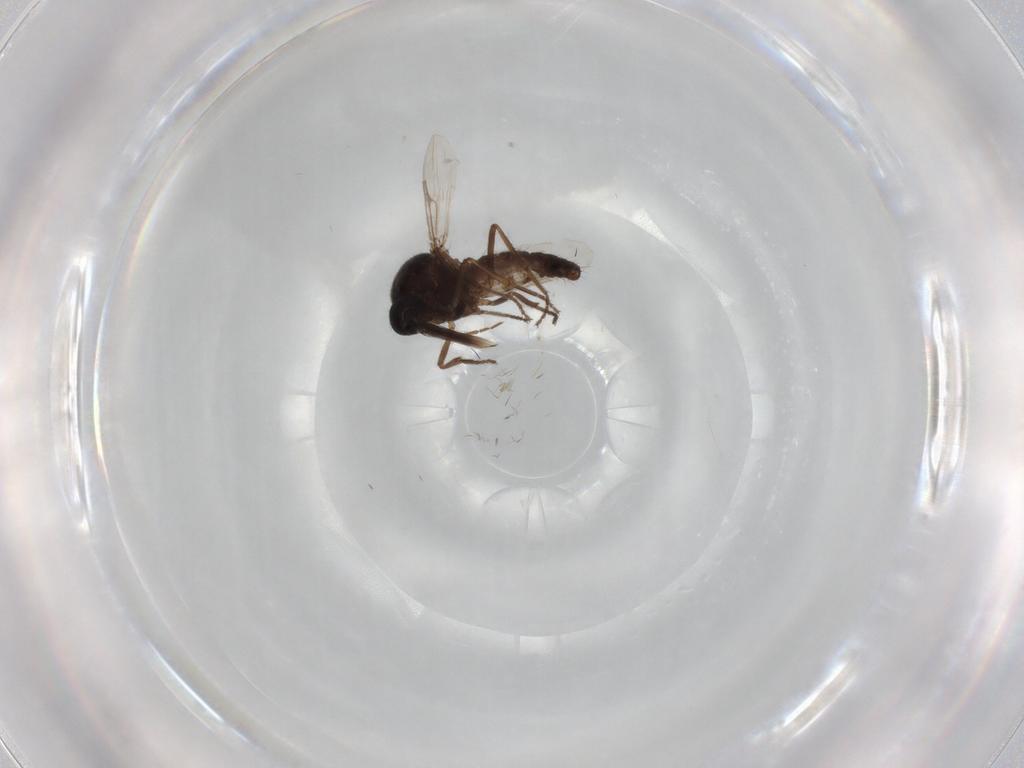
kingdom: Animalia
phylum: Arthropoda
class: Insecta
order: Diptera
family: Ceratopogonidae
